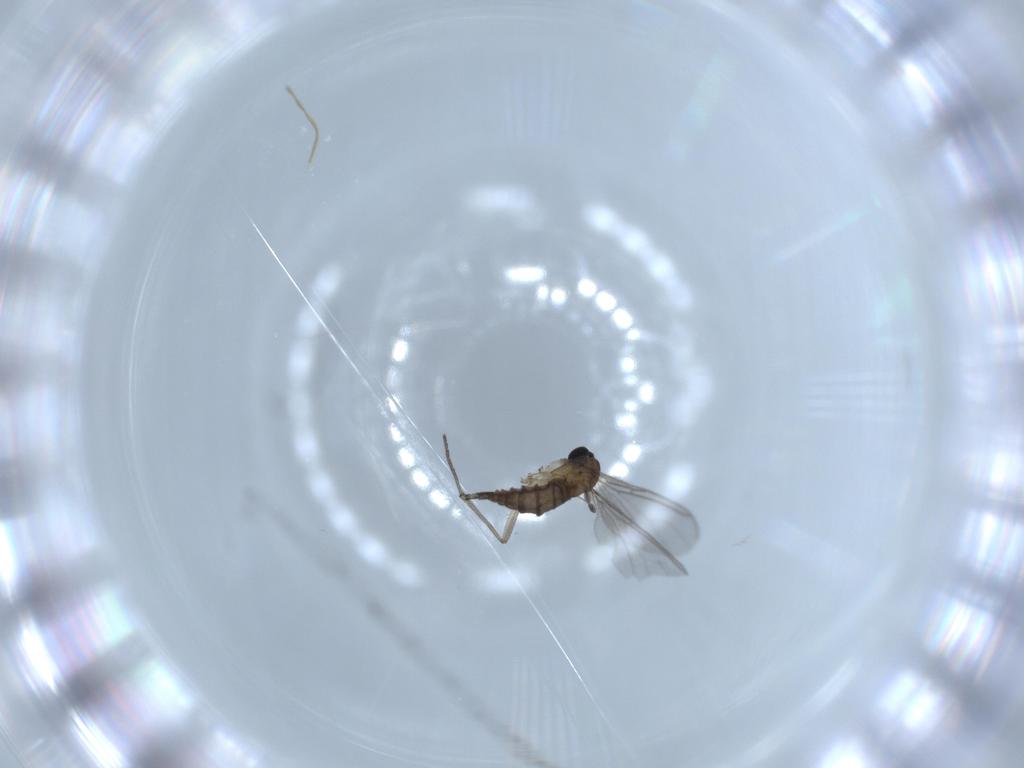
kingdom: Animalia
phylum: Arthropoda
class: Insecta
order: Diptera
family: Sciaridae
